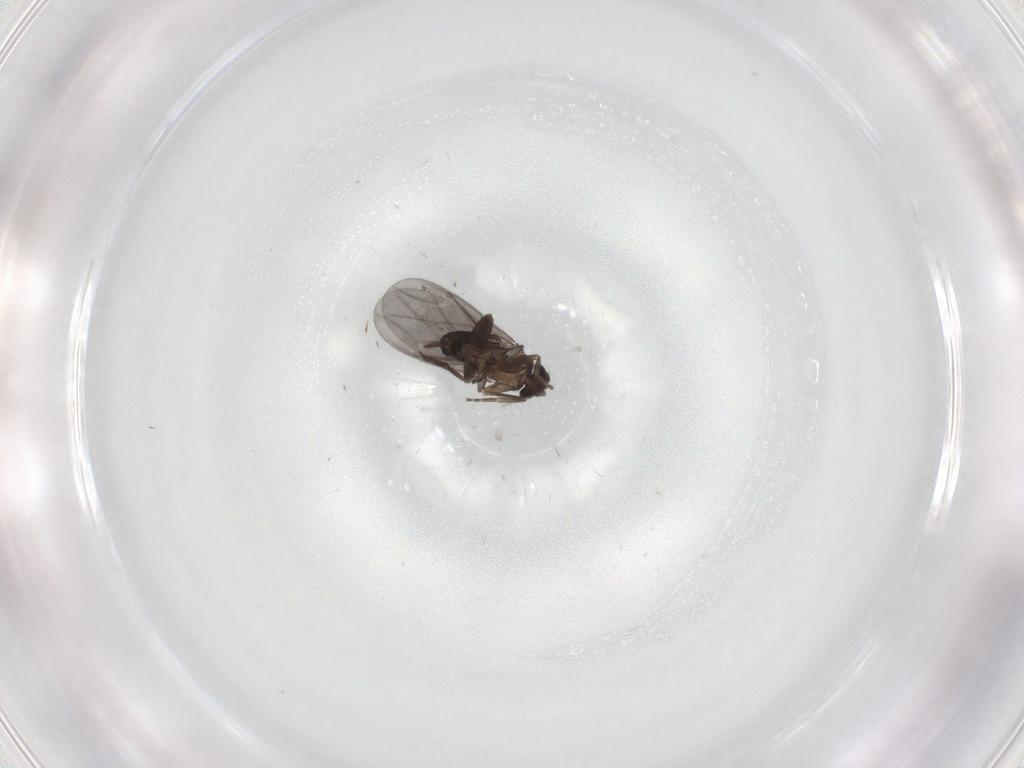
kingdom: Animalia
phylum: Arthropoda
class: Insecta
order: Diptera
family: Phoridae
